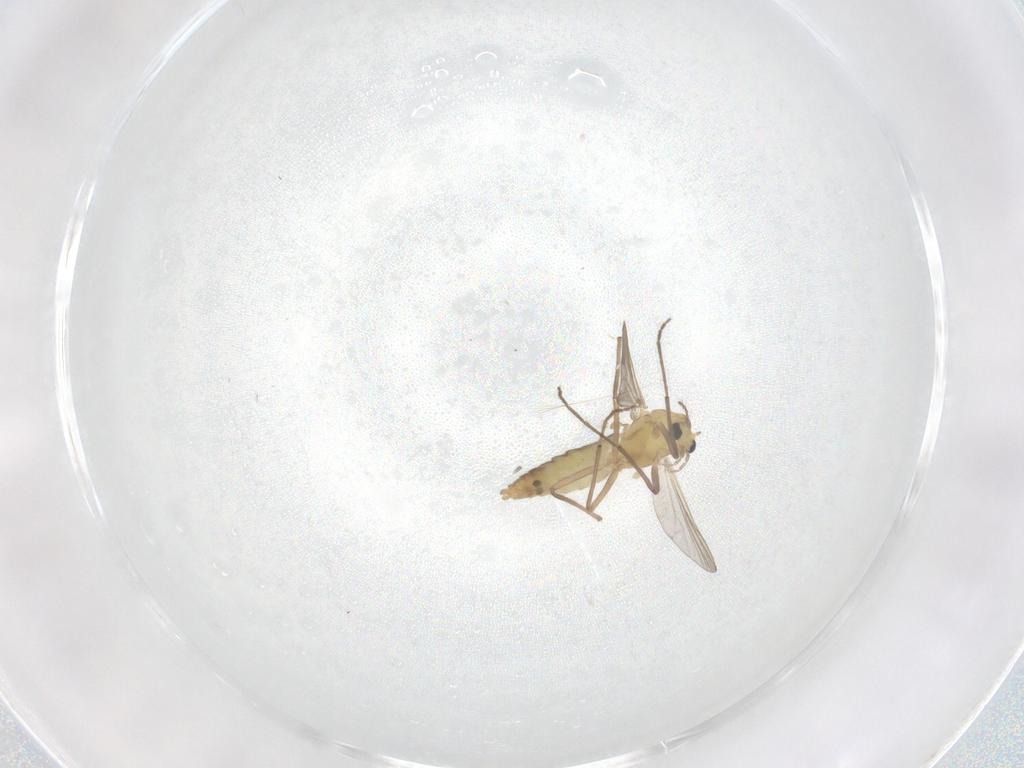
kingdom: Animalia
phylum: Arthropoda
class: Insecta
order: Diptera
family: Chironomidae
